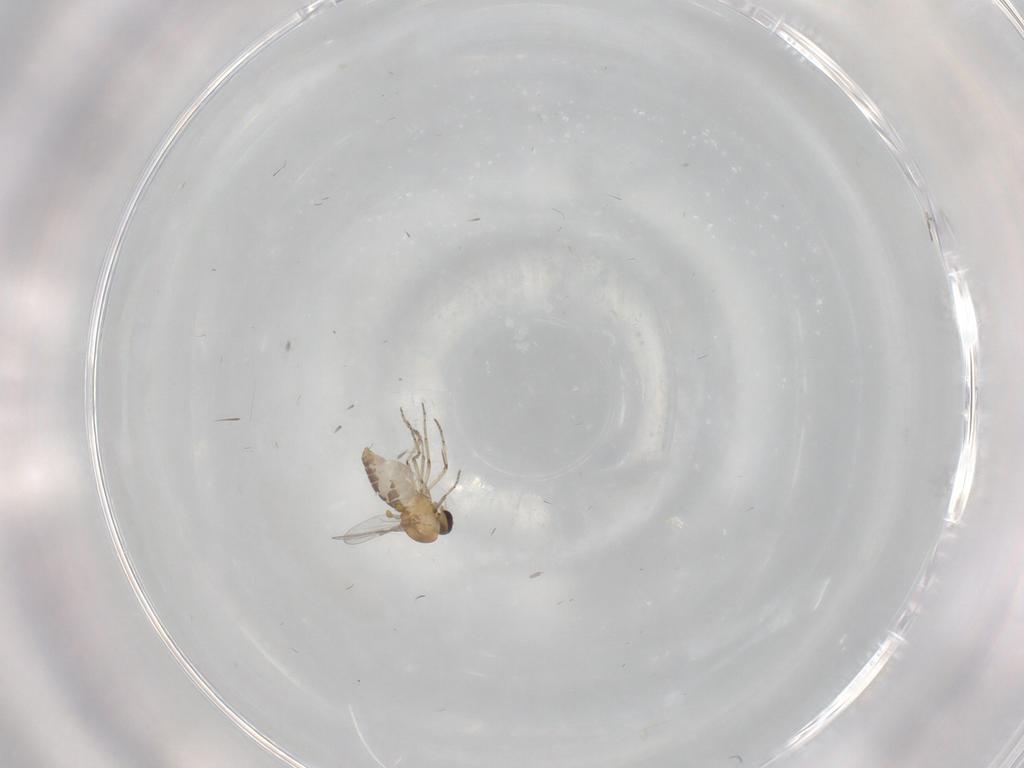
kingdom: Animalia
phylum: Arthropoda
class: Insecta
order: Diptera
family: Ceratopogonidae
